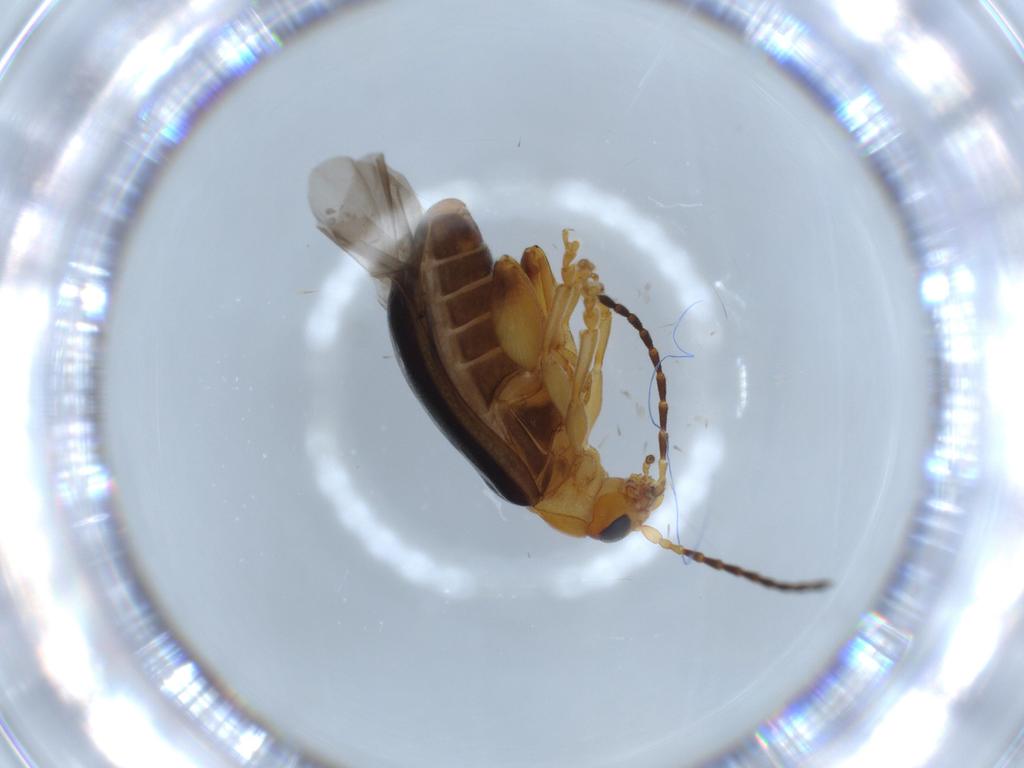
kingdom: Animalia
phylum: Arthropoda
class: Insecta
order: Coleoptera
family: Chrysomelidae
